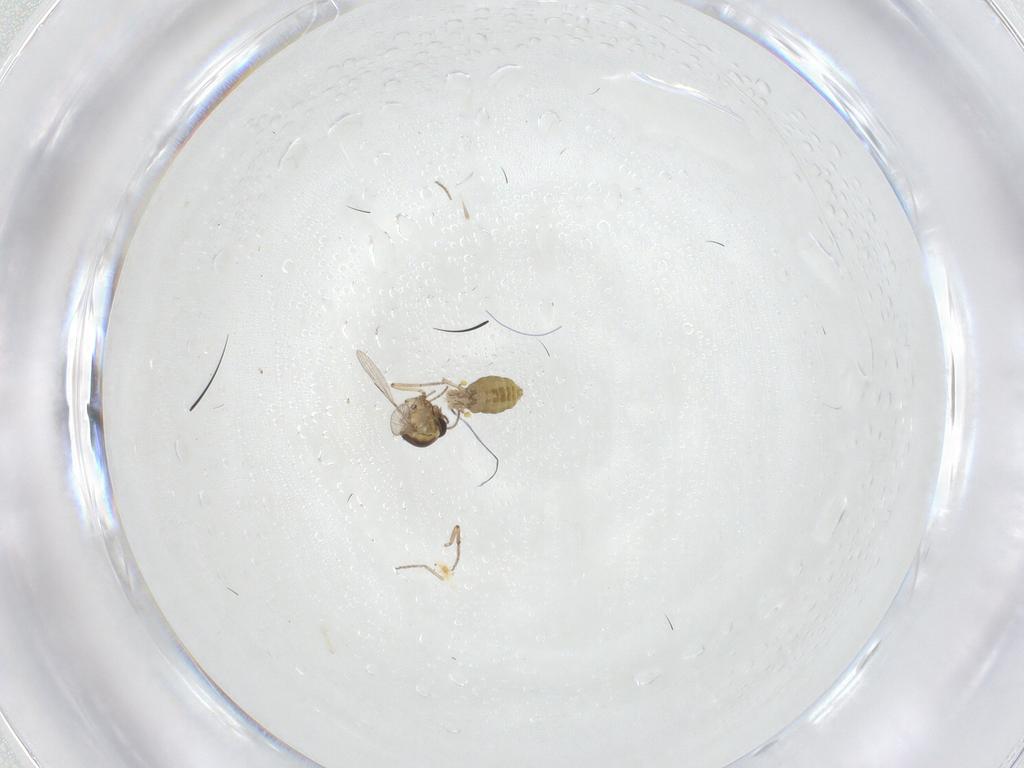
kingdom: Animalia
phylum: Arthropoda
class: Insecta
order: Diptera
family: Ceratopogonidae
